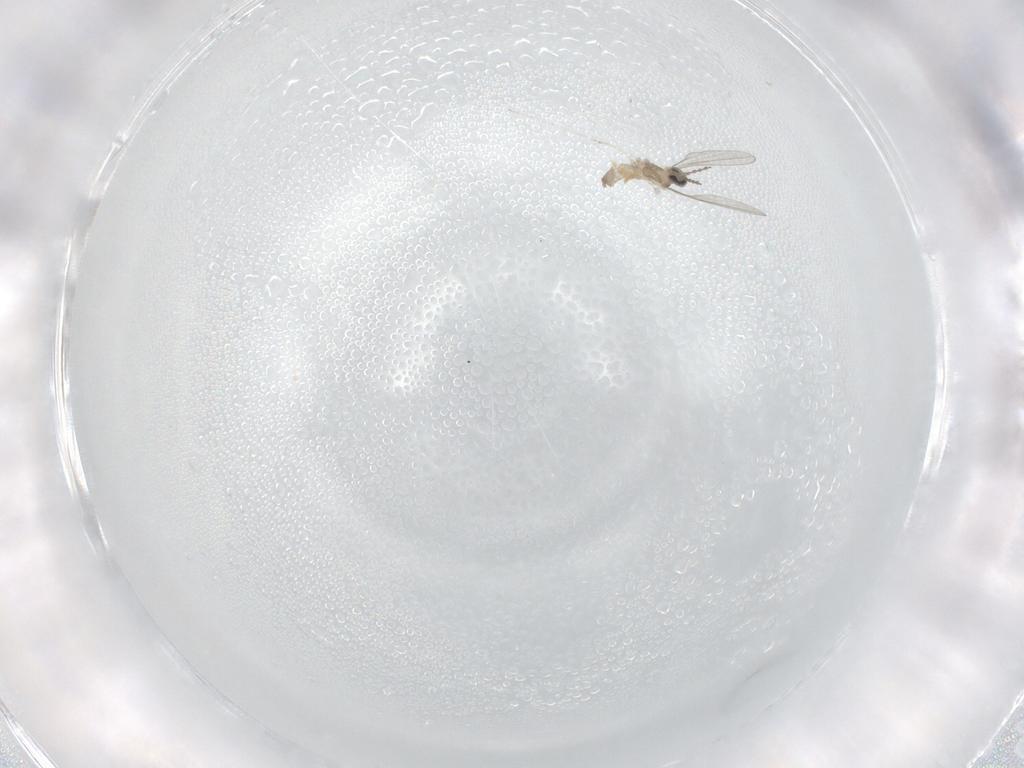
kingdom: Animalia
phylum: Arthropoda
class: Insecta
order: Diptera
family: Cecidomyiidae
